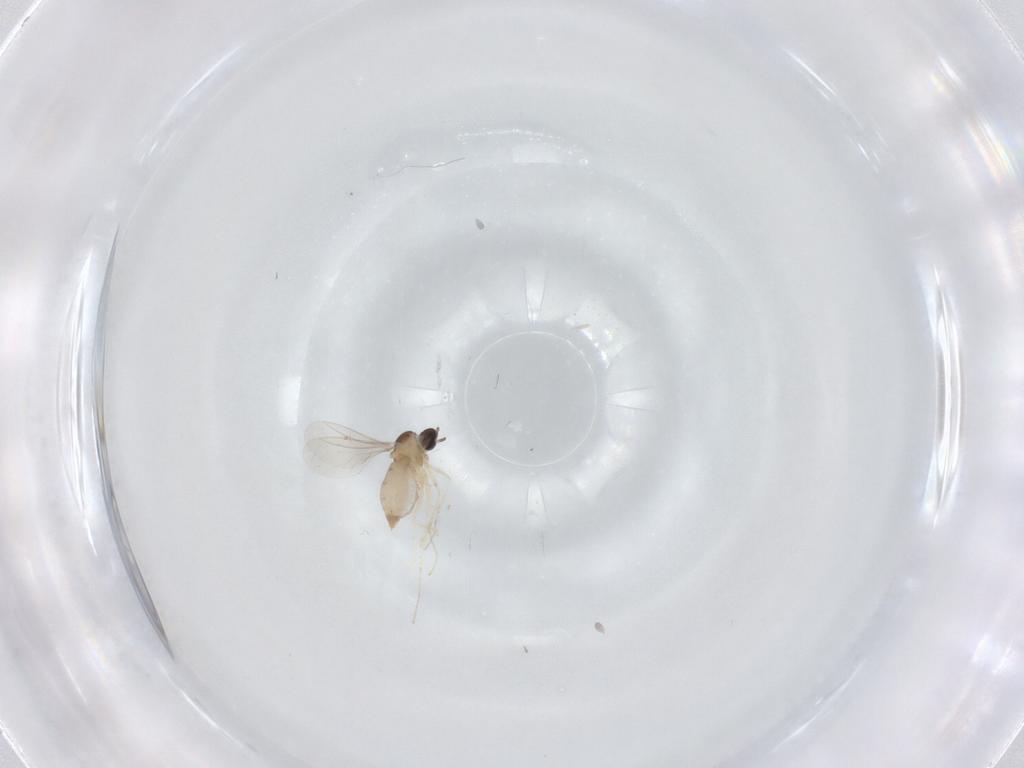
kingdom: Animalia
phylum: Arthropoda
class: Insecta
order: Diptera
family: Cecidomyiidae
